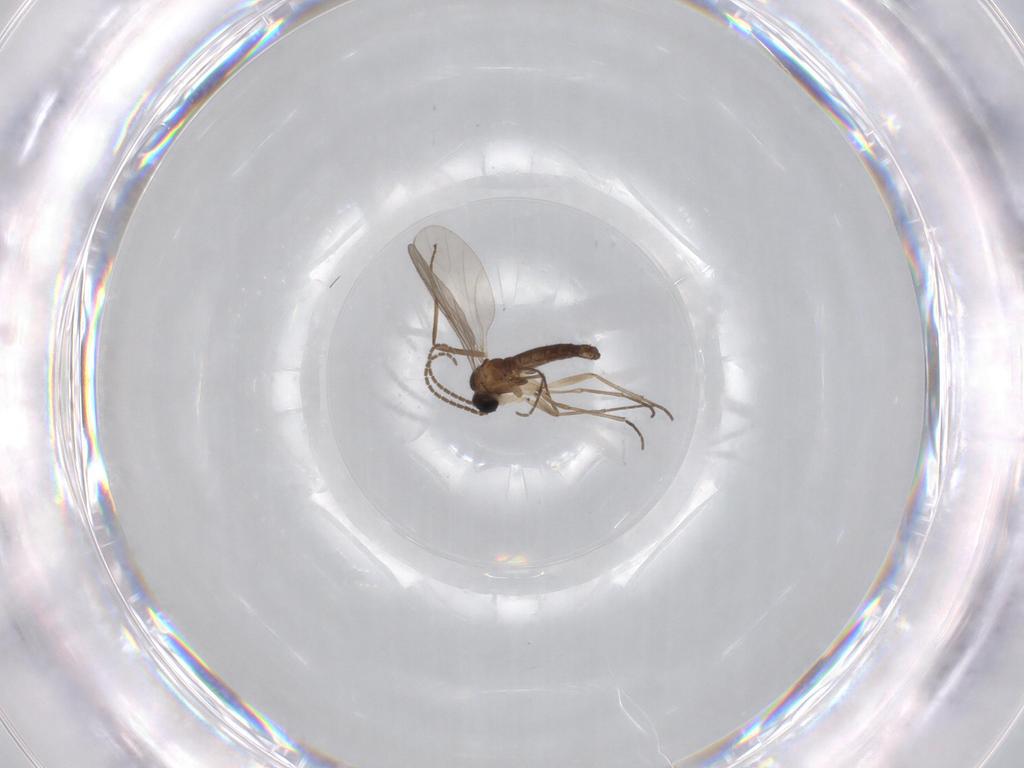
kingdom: Animalia
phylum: Arthropoda
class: Insecta
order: Diptera
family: Sciaridae
